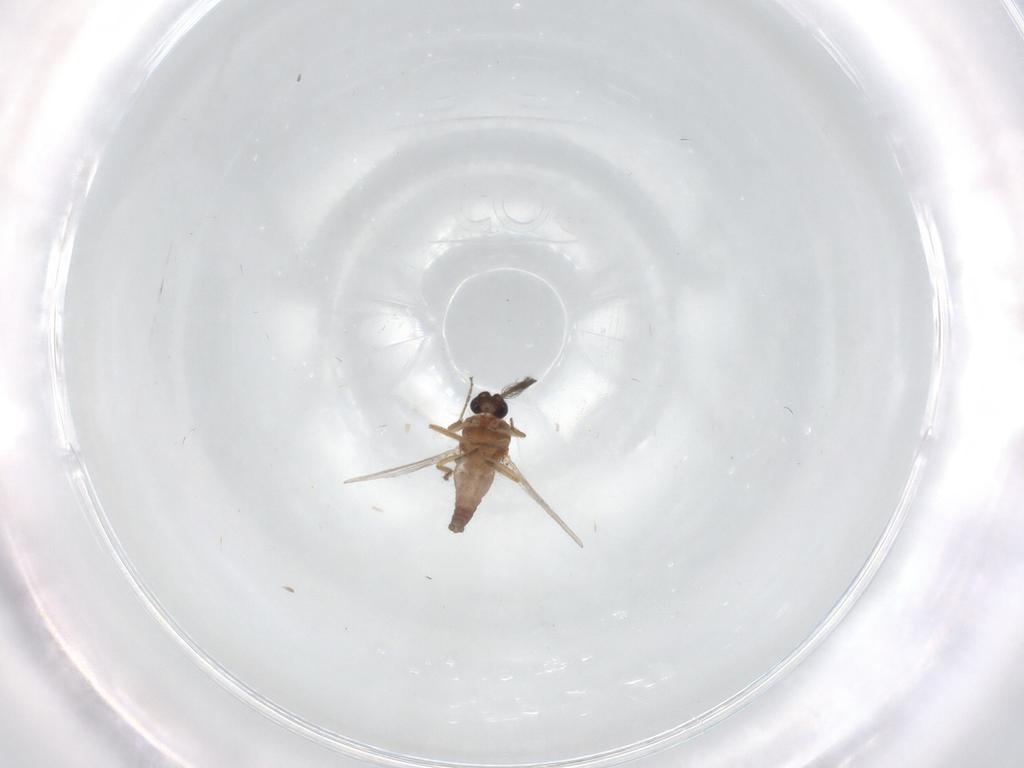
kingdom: Animalia
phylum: Arthropoda
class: Insecta
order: Diptera
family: Ceratopogonidae
